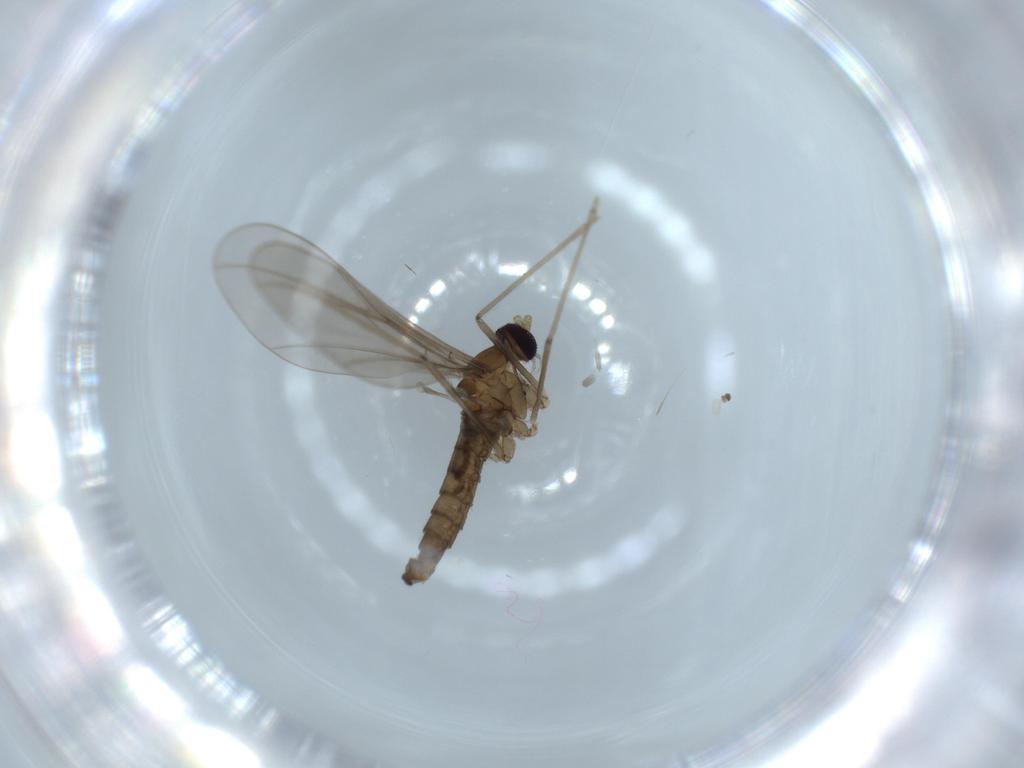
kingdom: Animalia
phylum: Arthropoda
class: Insecta
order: Diptera
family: Cecidomyiidae
